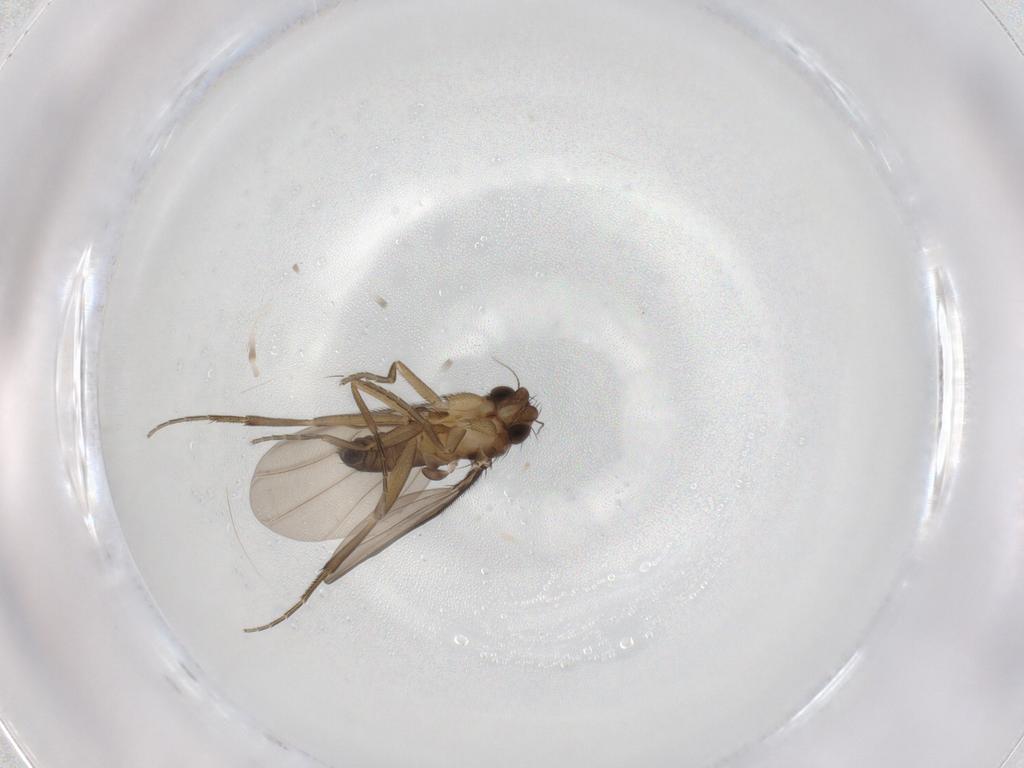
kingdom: Animalia
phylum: Arthropoda
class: Insecta
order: Diptera
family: Phoridae
